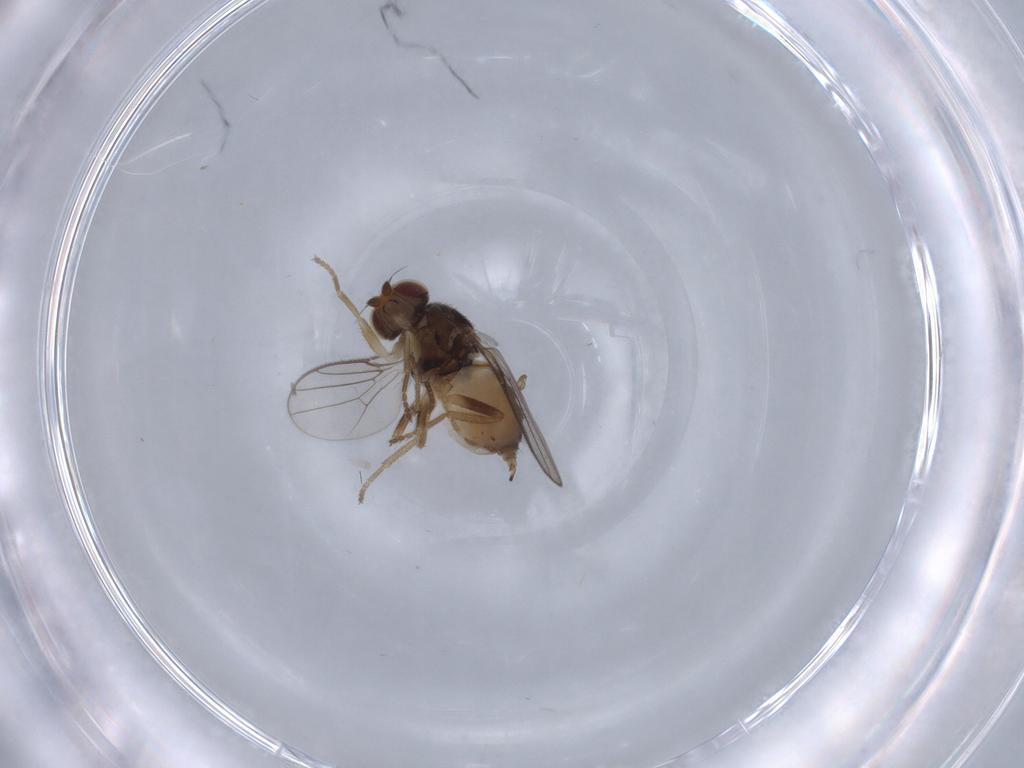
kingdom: Animalia
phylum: Arthropoda
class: Insecta
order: Diptera
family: Chloropidae
